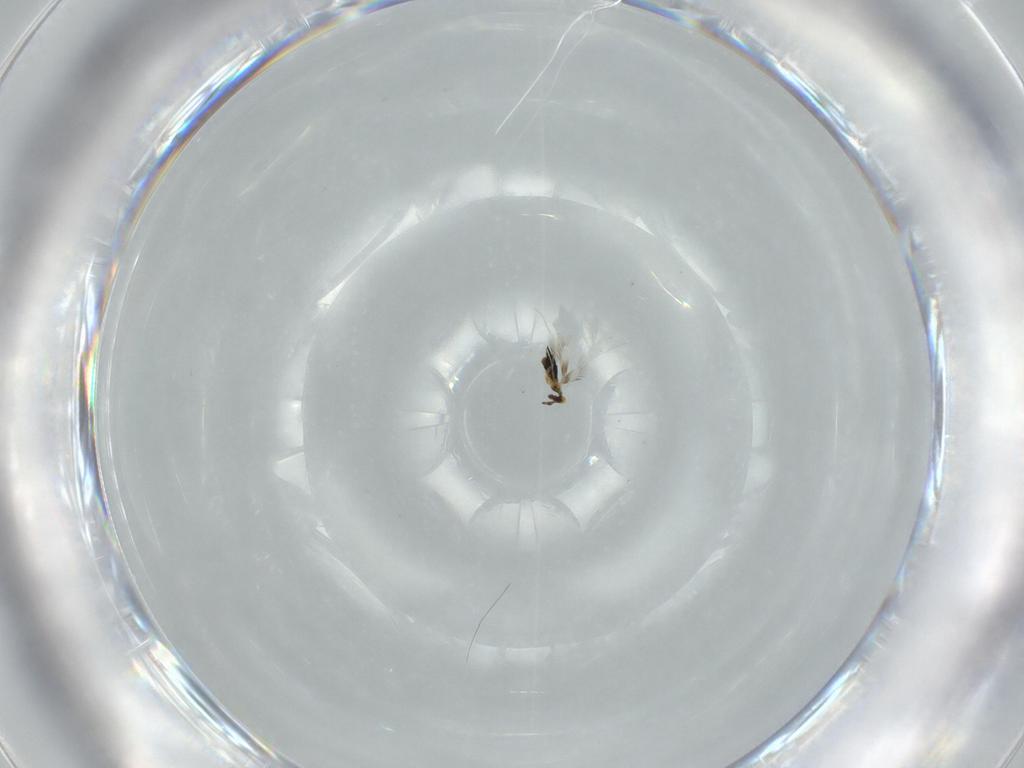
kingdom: Animalia
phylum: Arthropoda
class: Insecta
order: Hymenoptera
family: Signiphoridae
